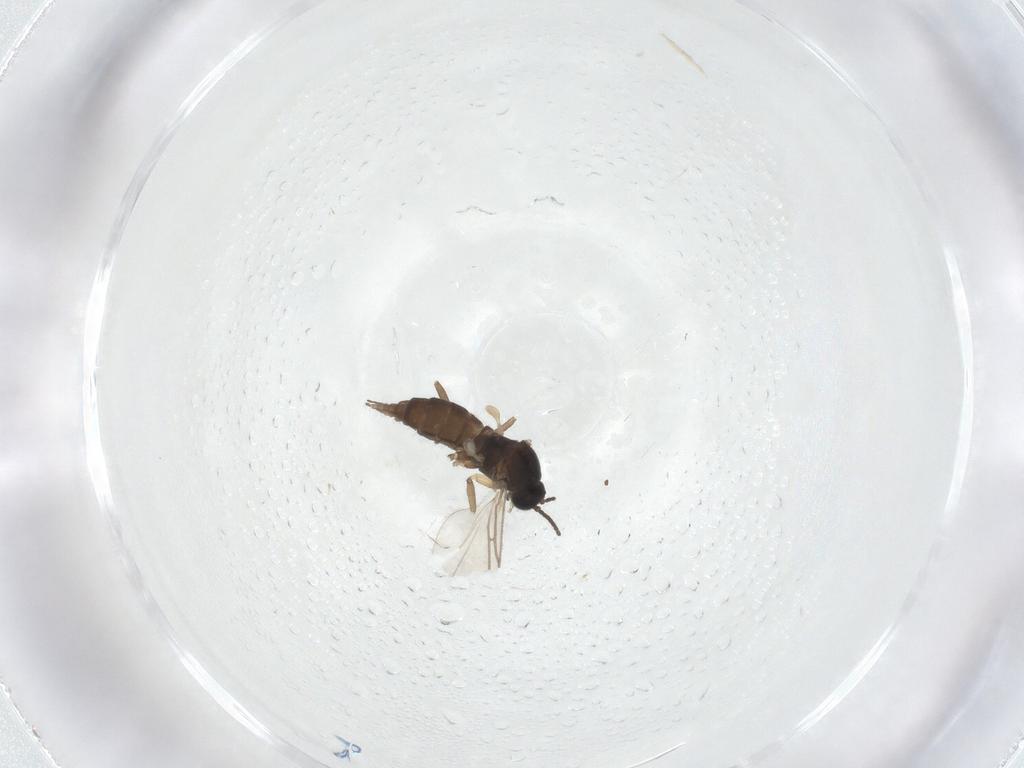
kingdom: Animalia
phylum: Arthropoda
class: Insecta
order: Diptera
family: Sciaridae
